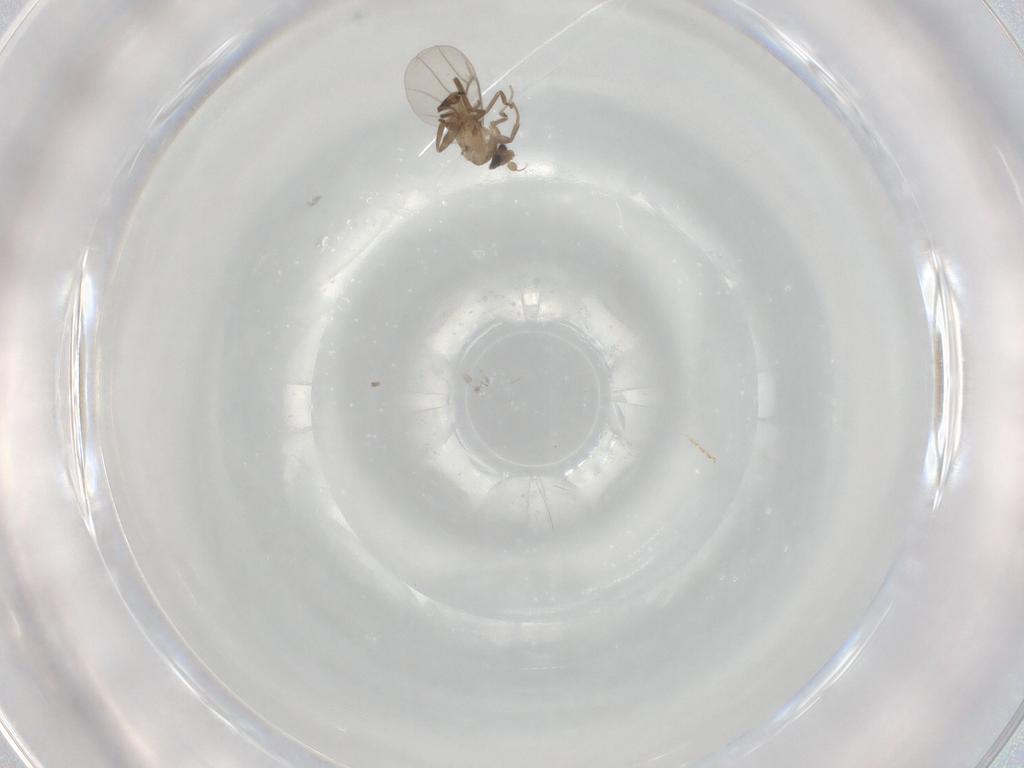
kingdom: Animalia
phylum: Arthropoda
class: Insecta
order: Diptera
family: Ceratopogonidae
